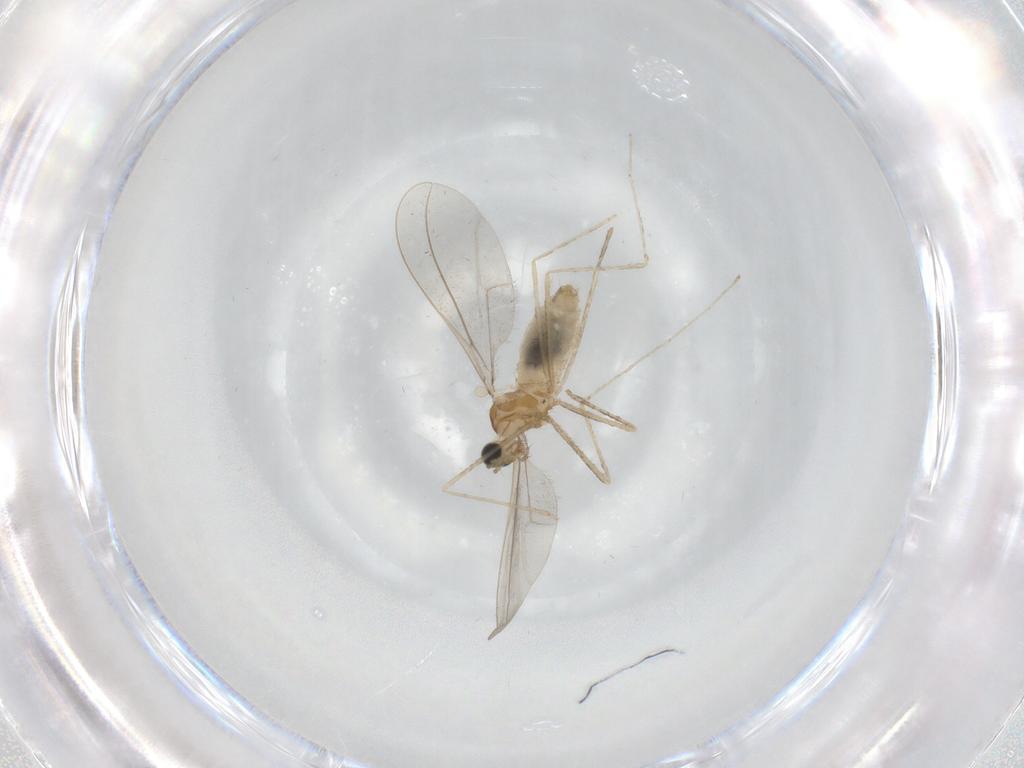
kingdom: Animalia
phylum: Arthropoda
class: Insecta
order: Diptera
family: Cecidomyiidae
